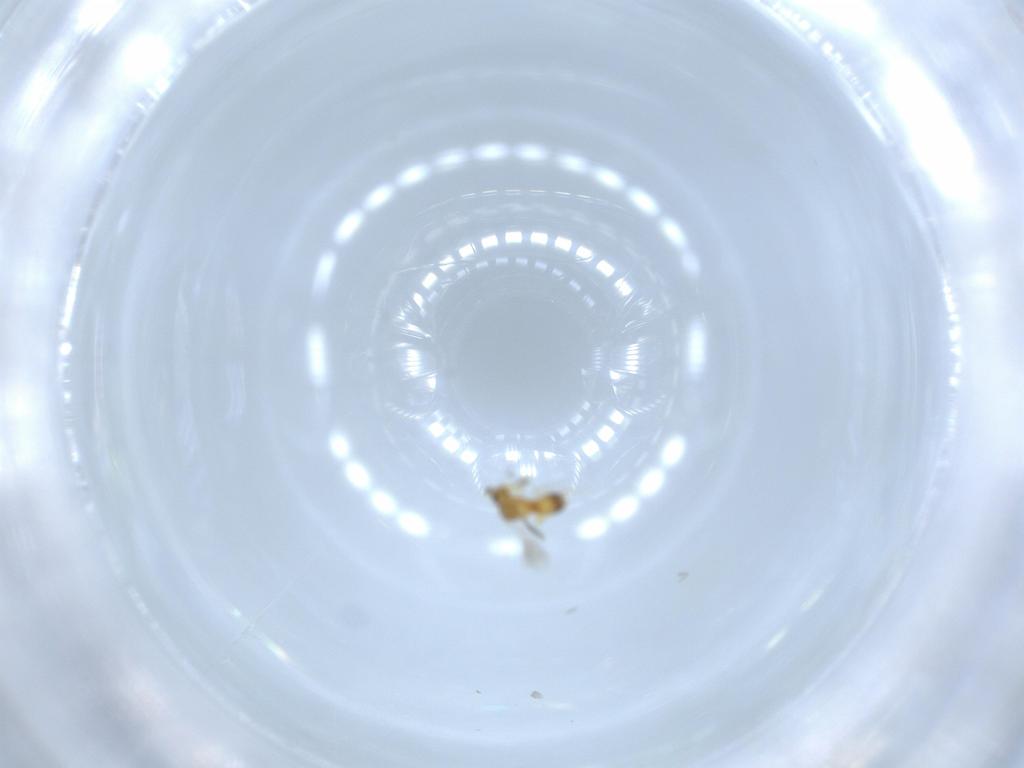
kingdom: Animalia
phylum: Arthropoda
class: Insecta
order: Hymenoptera
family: Platygastridae
